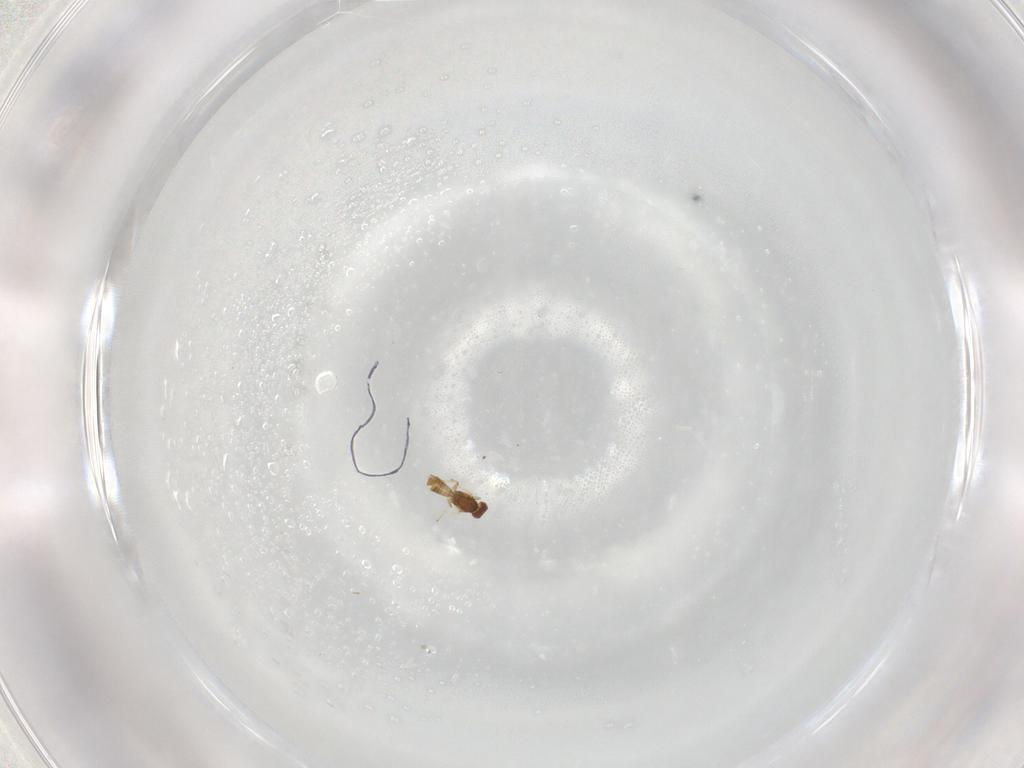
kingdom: Animalia
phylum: Arthropoda
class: Insecta
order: Hymenoptera
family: Eulophidae
